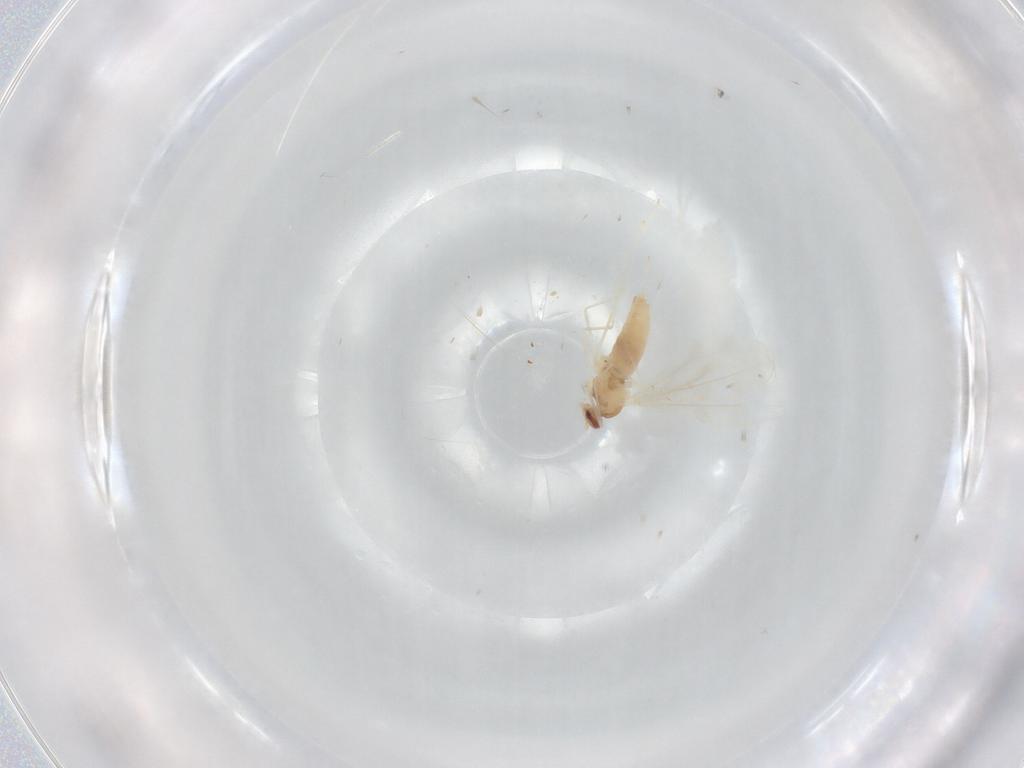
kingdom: Animalia
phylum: Arthropoda
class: Insecta
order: Diptera
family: Cecidomyiidae
